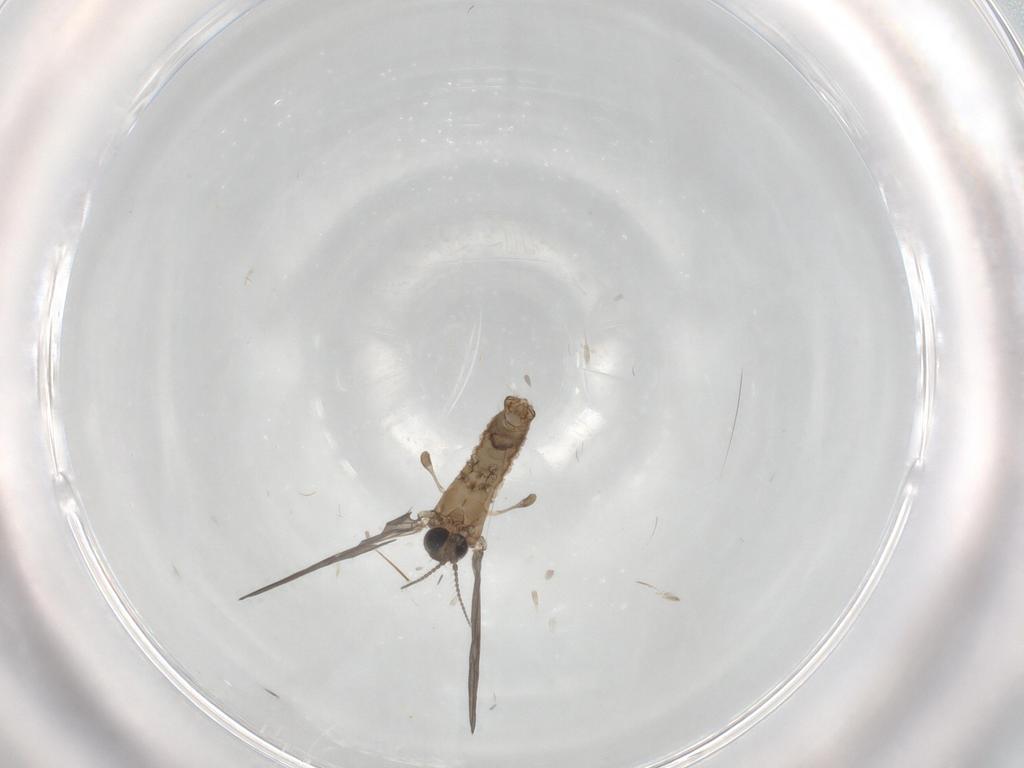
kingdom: Animalia
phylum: Arthropoda
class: Insecta
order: Diptera
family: Limoniidae
